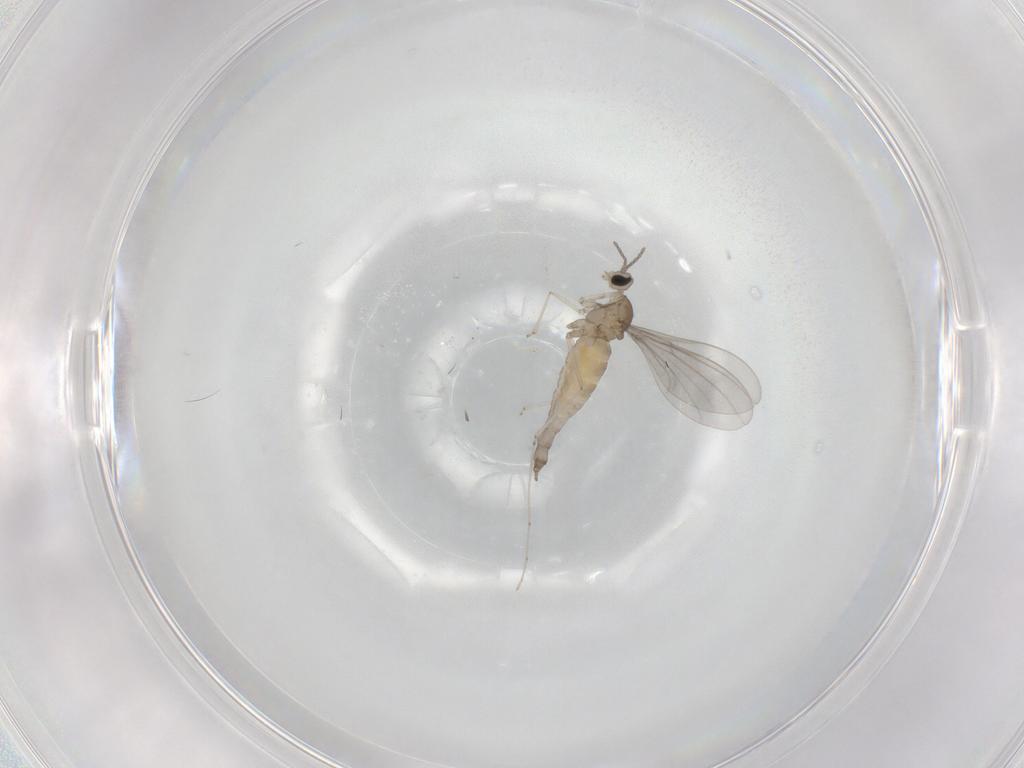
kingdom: Animalia
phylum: Arthropoda
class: Insecta
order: Diptera
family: Cecidomyiidae
